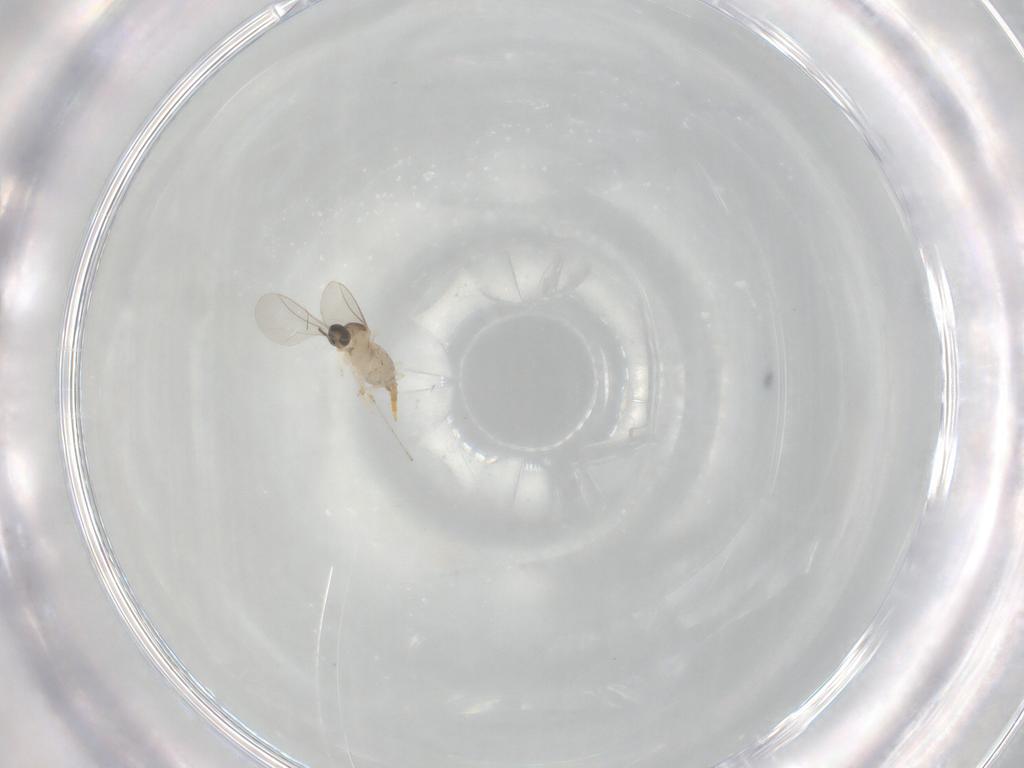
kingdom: Animalia
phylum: Arthropoda
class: Insecta
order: Diptera
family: Cecidomyiidae
